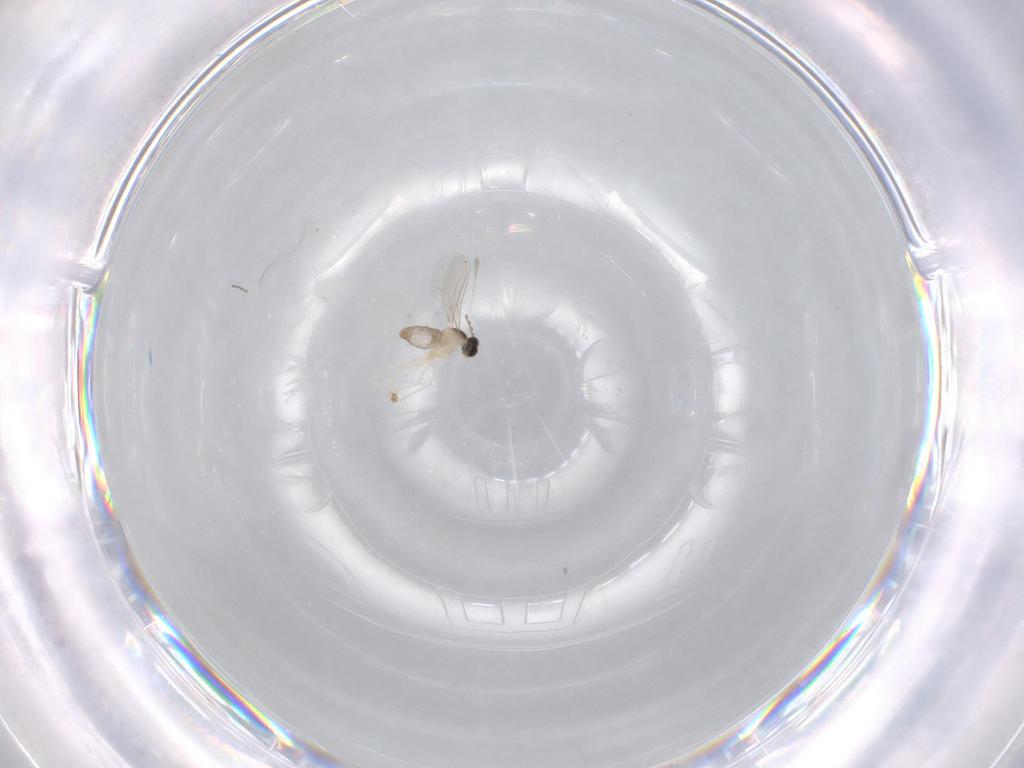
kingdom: Animalia
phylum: Arthropoda
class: Insecta
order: Diptera
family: Cecidomyiidae
